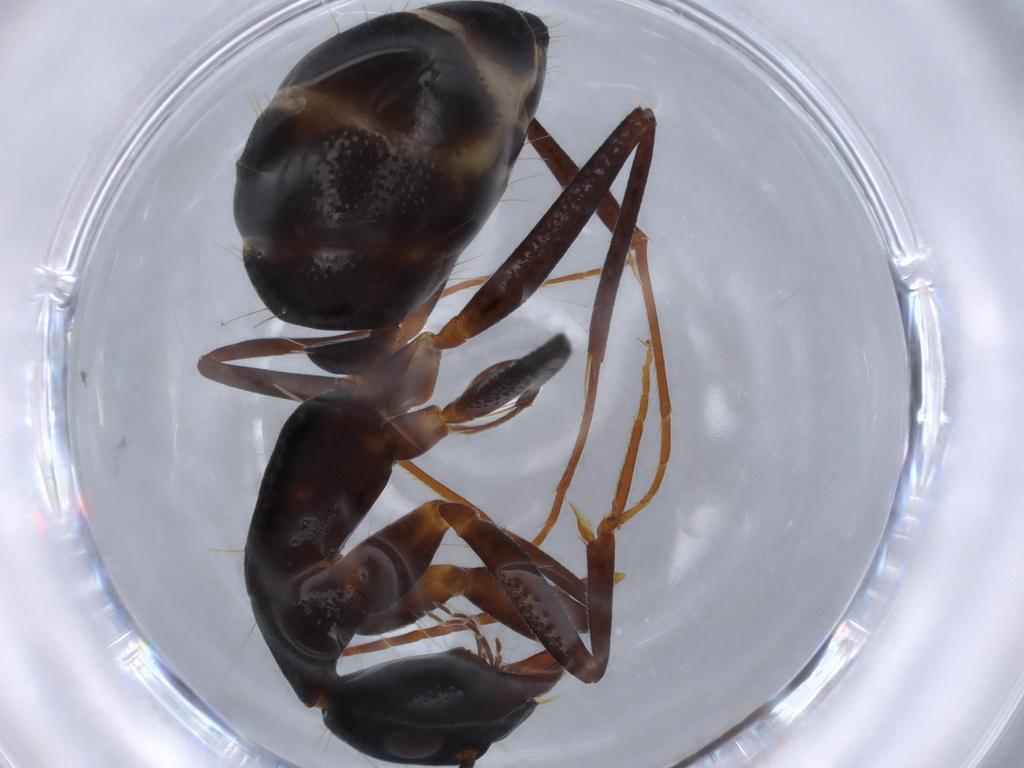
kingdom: Animalia
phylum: Arthropoda
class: Insecta
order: Hymenoptera
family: Formicidae
